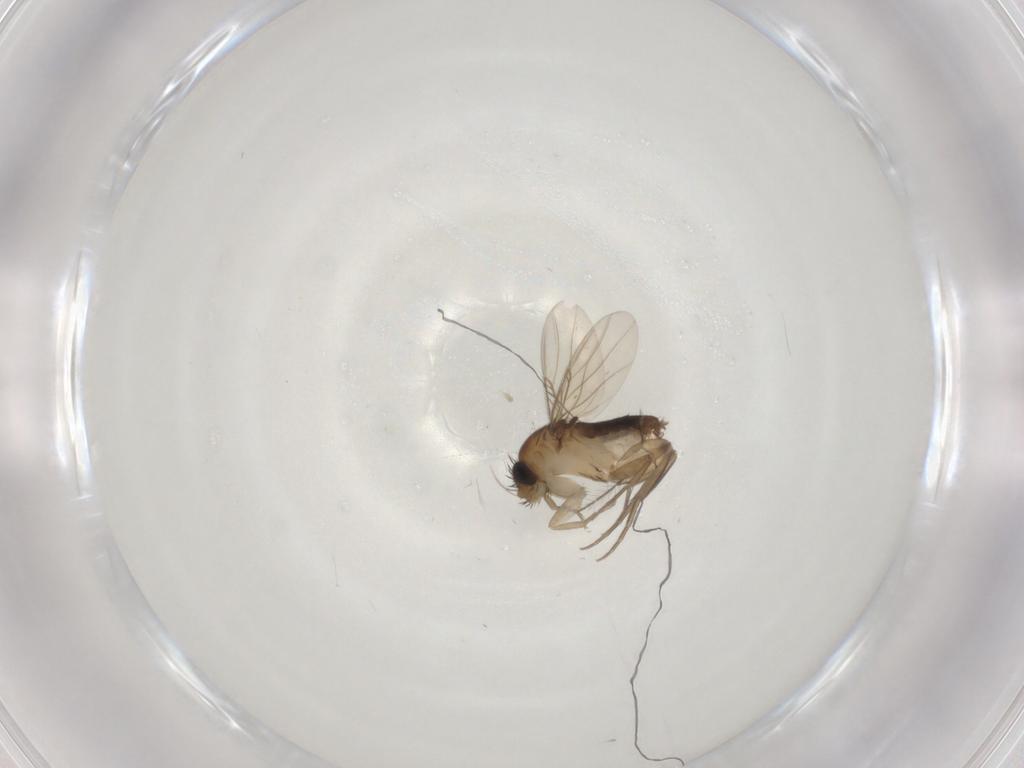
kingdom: Animalia
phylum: Arthropoda
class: Insecta
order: Diptera
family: Phoridae
